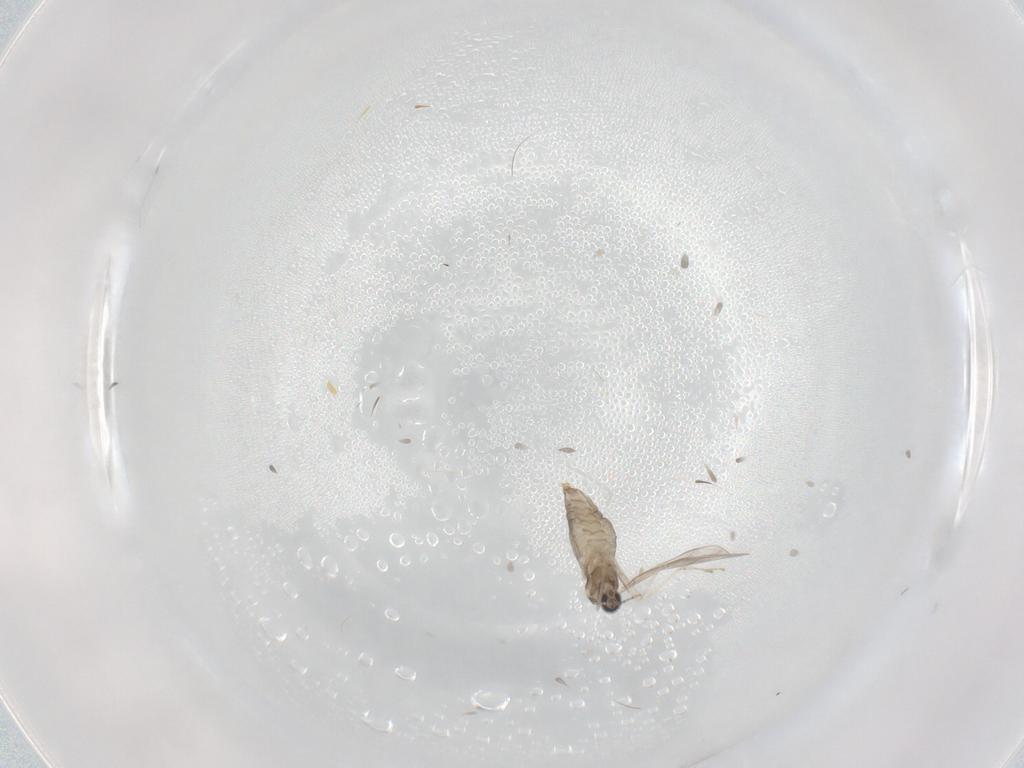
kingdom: Animalia
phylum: Arthropoda
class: Insecta
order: Diptera
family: Cecidomyiidae
